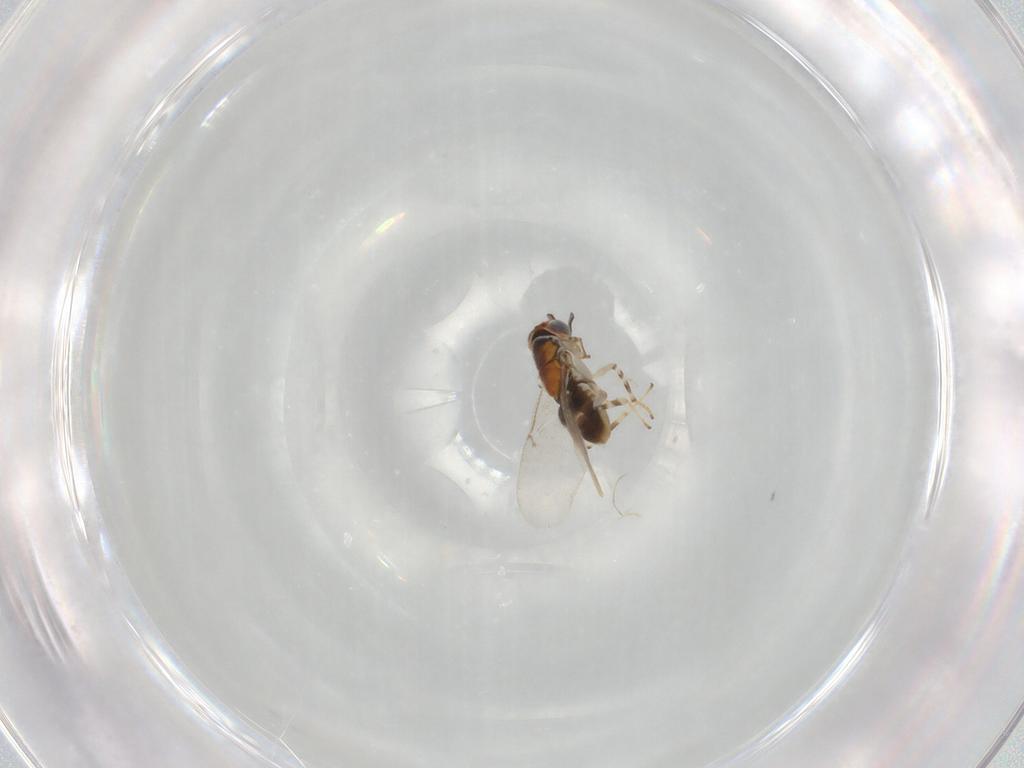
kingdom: Animalia
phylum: Arthropoda
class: Insecta
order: Hymenoptera
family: Encyrtidae
